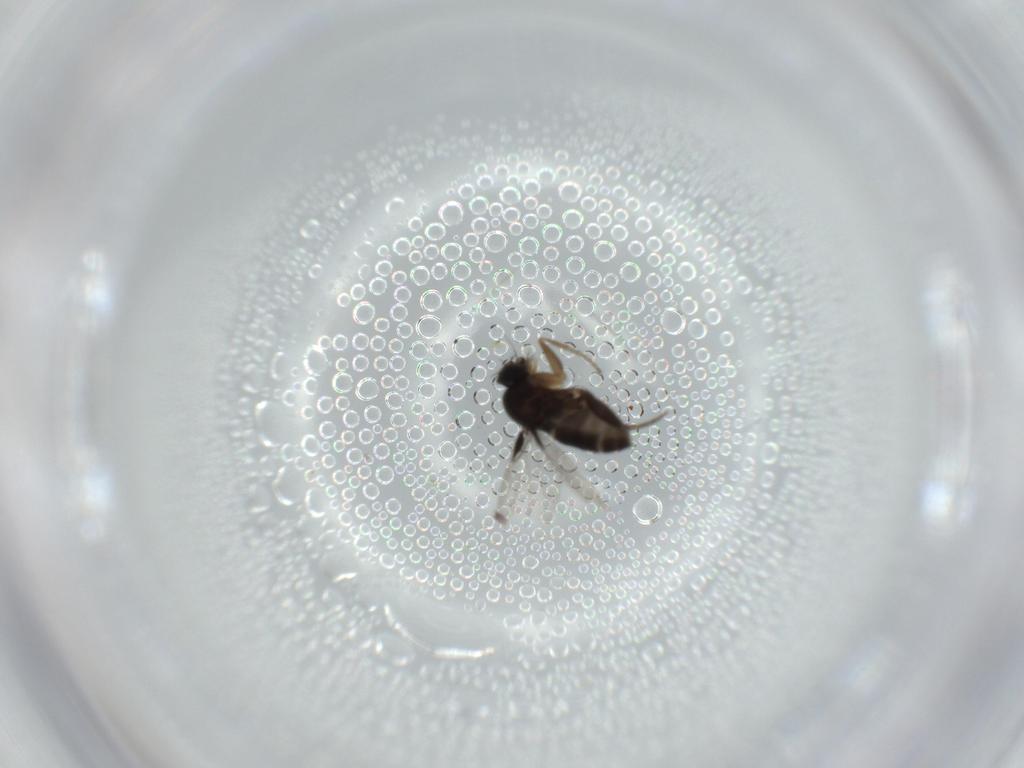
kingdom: Animalia
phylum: Arthropoda
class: Insecta
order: Diptera
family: Phoridae
